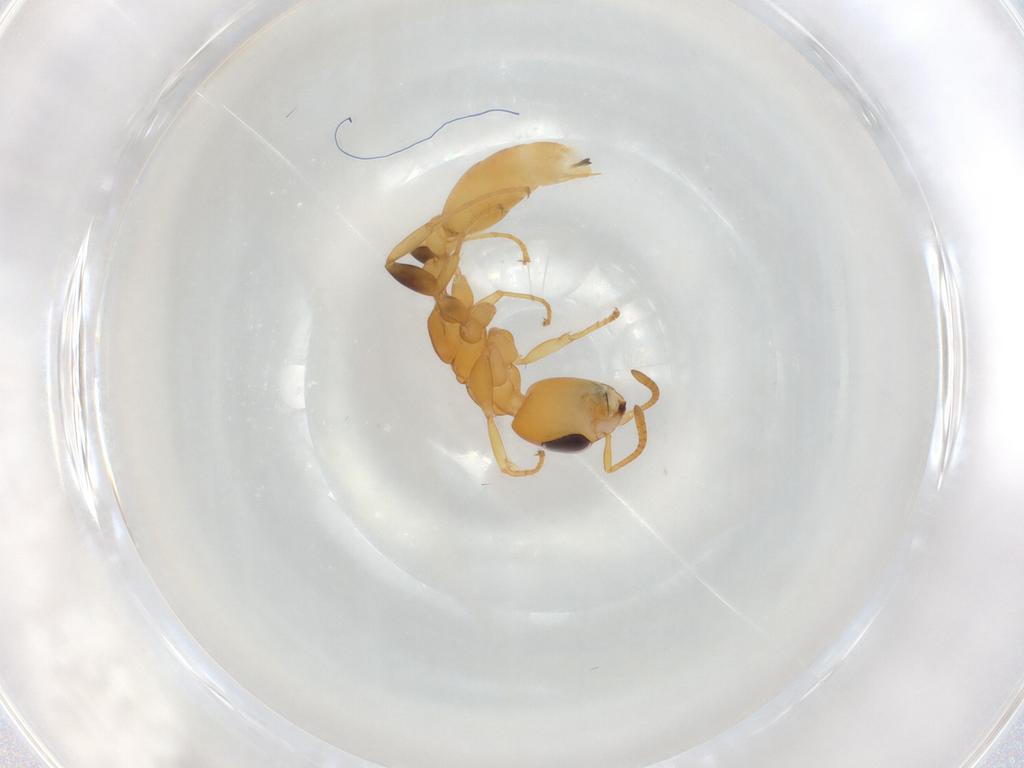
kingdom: Animalia
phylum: Arthropoda
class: Insecta
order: Hymenoptera
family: Formicidae
